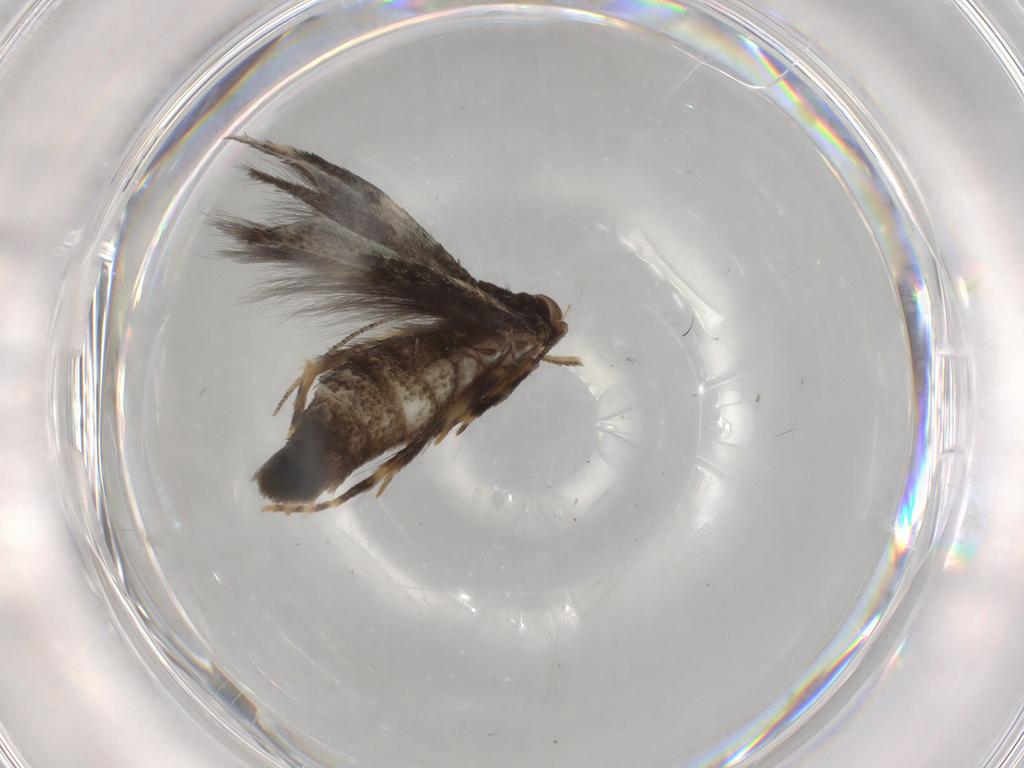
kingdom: Animalia
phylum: Arthropoda
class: Insecta
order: Lepidoptera
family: Elachistidae
